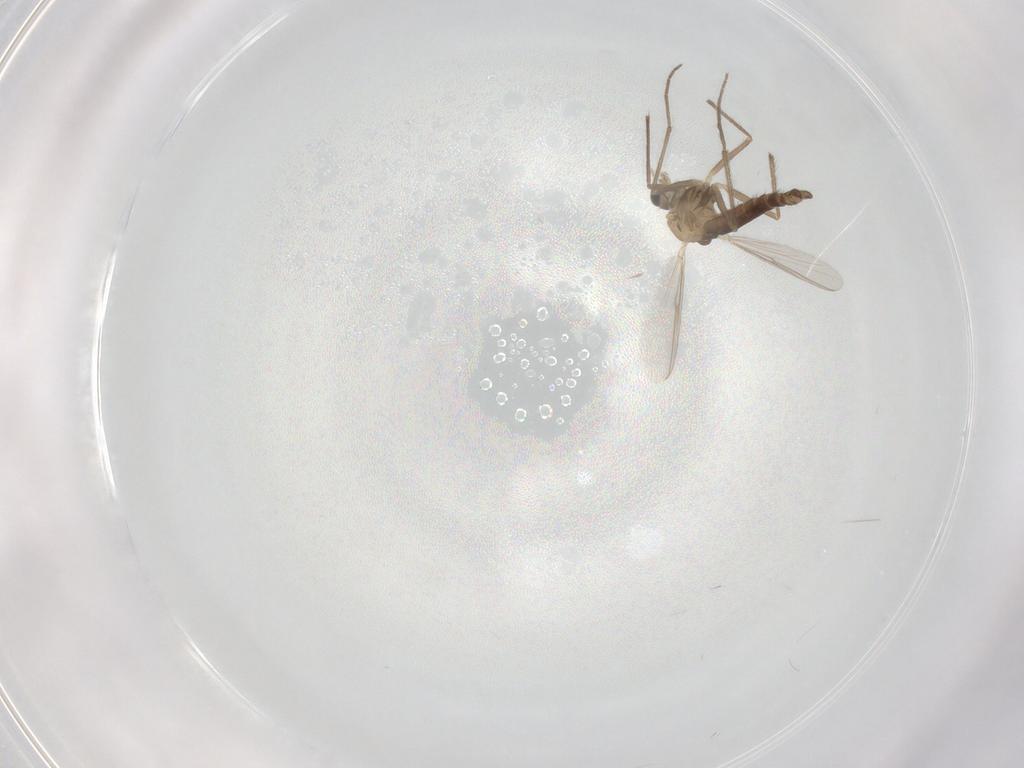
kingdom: Animalia
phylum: Arthropoda
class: Insecta
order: Diptera
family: Chironomidae
